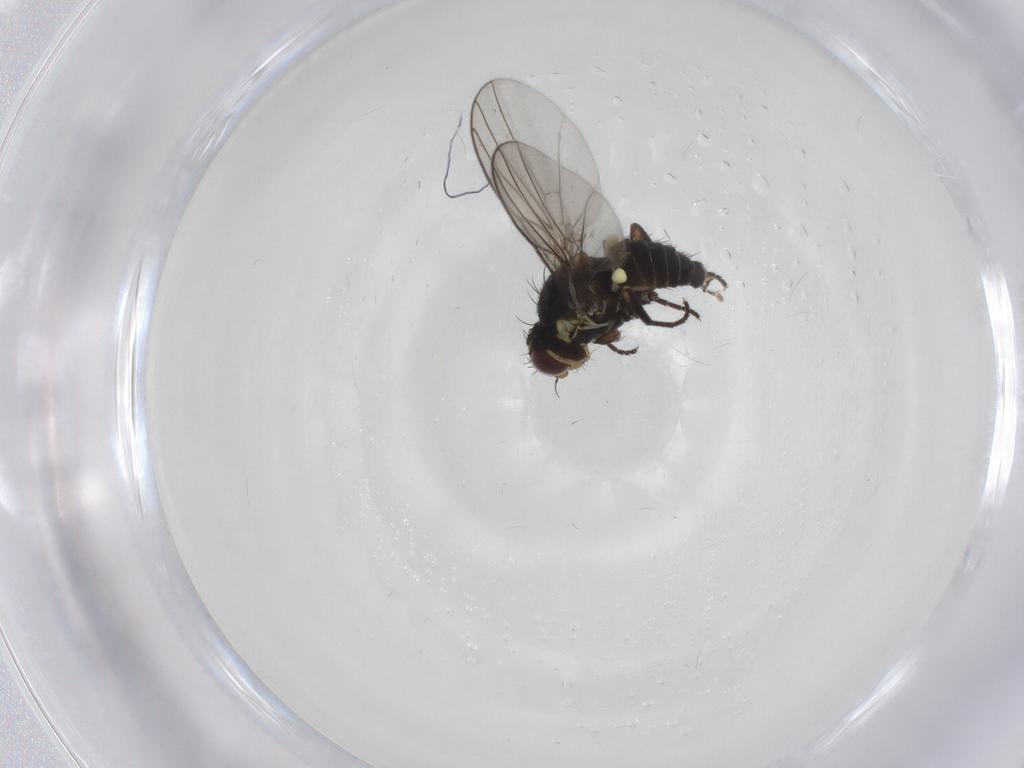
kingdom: Animalia
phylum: Arthropoda
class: Insecta
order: Diptera
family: Agromyzidae
